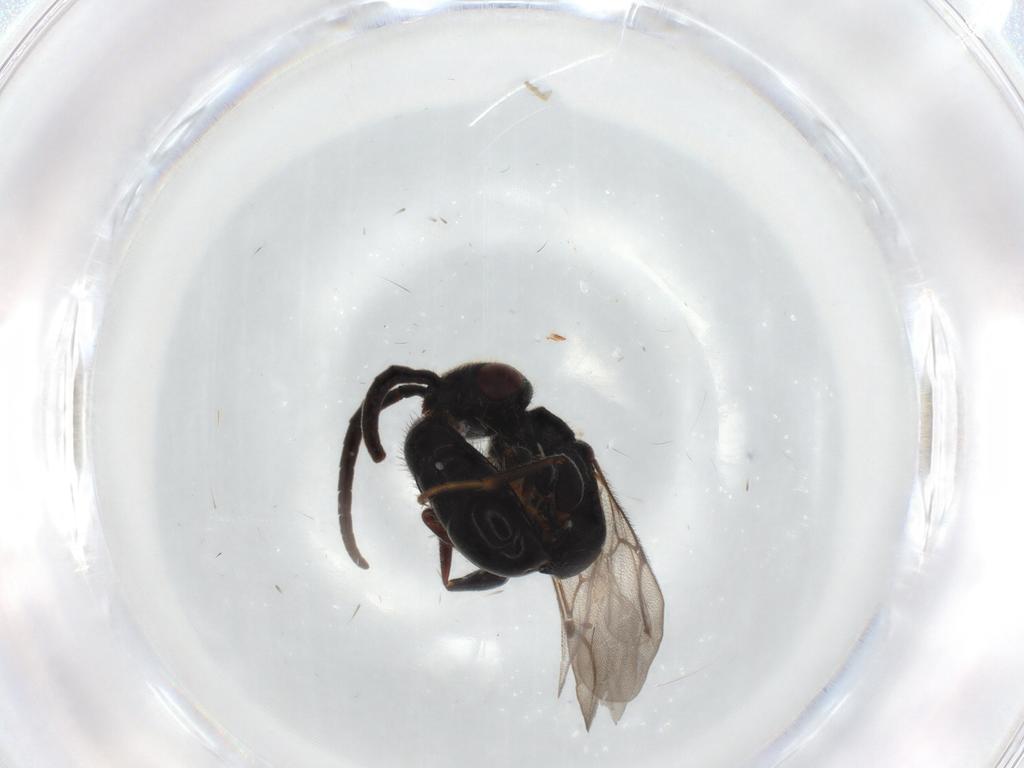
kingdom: Animalia
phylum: Arthropoda
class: Insecta
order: Hymenoptera
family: Bethylidae
